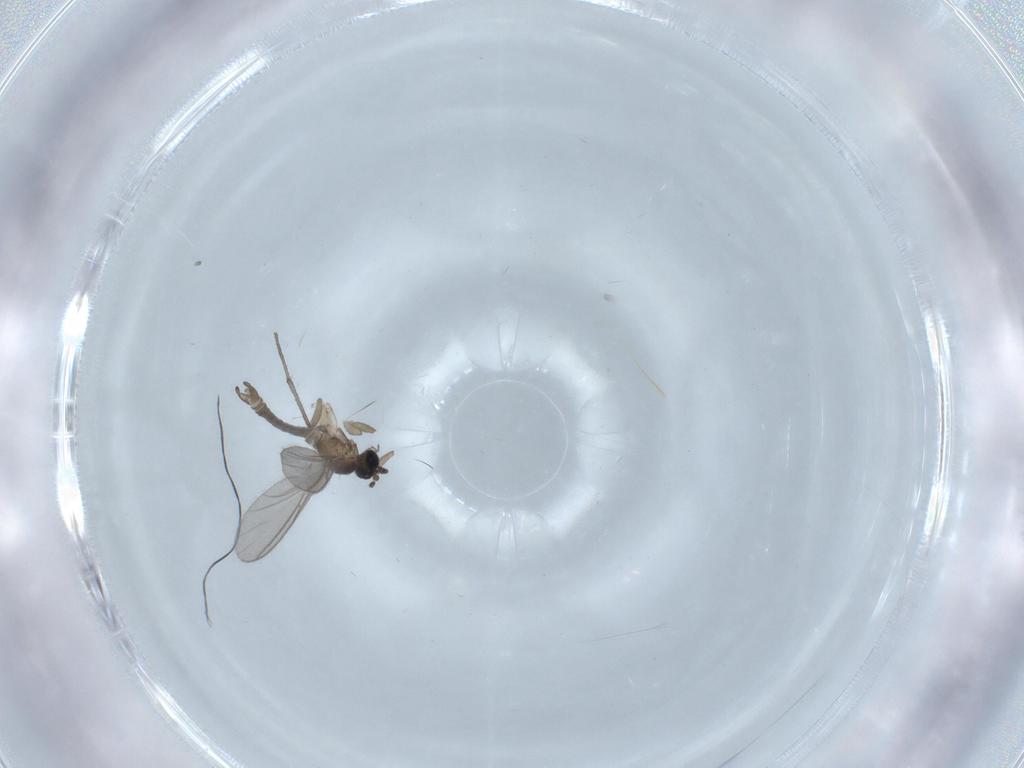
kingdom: Animalia
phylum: Arthropoda
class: Insecta
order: Diptera
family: Sciaridae
